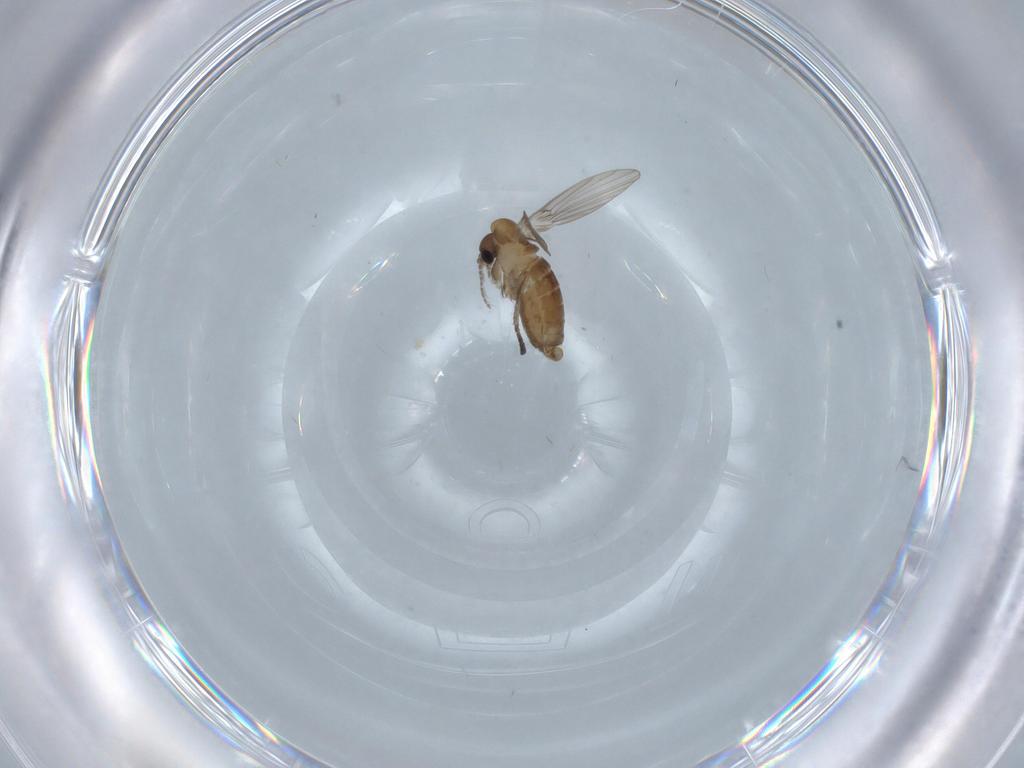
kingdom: Animalia
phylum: Arthropoda
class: Insecta
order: Diptera
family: Psychodidae
